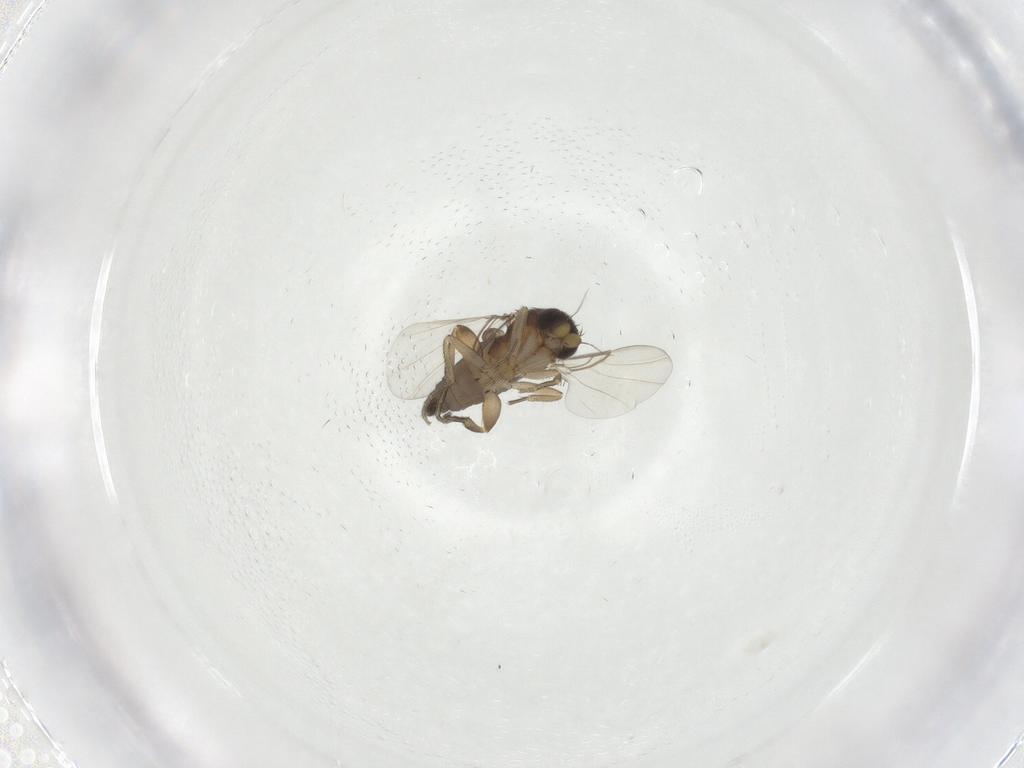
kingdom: Animalia
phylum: Arthropoda
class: Insecta
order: Diptera
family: Phoridae
